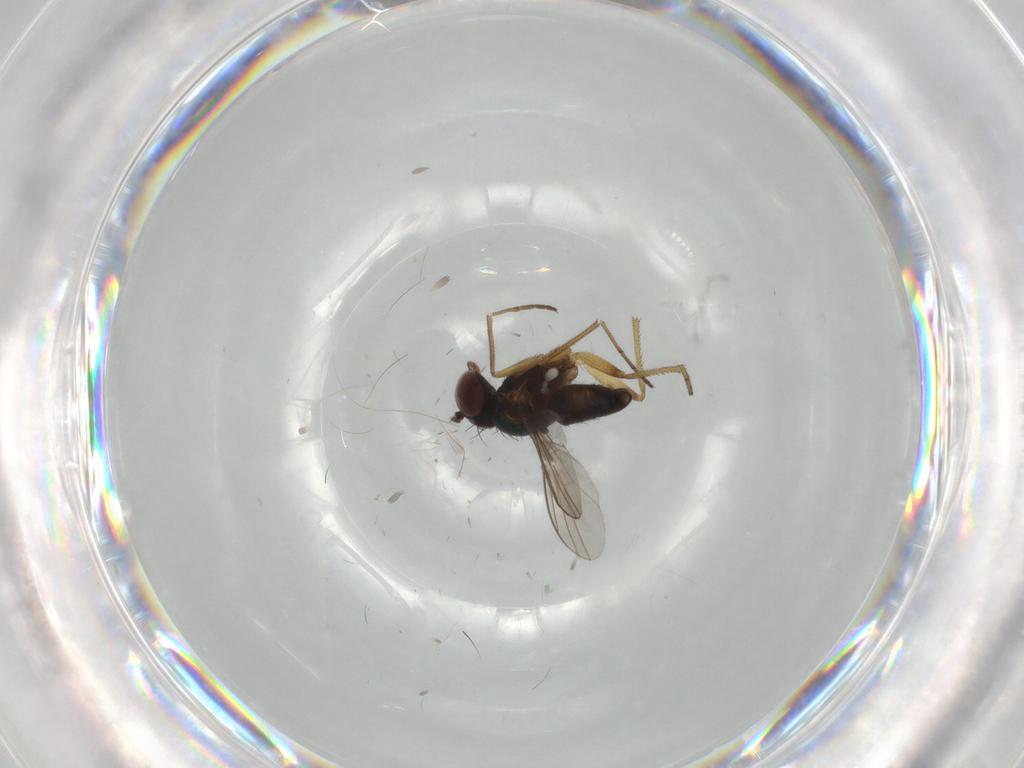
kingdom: Animalia
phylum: Arthropoda
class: Insecta
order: Diptera
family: Dolichopodidae
